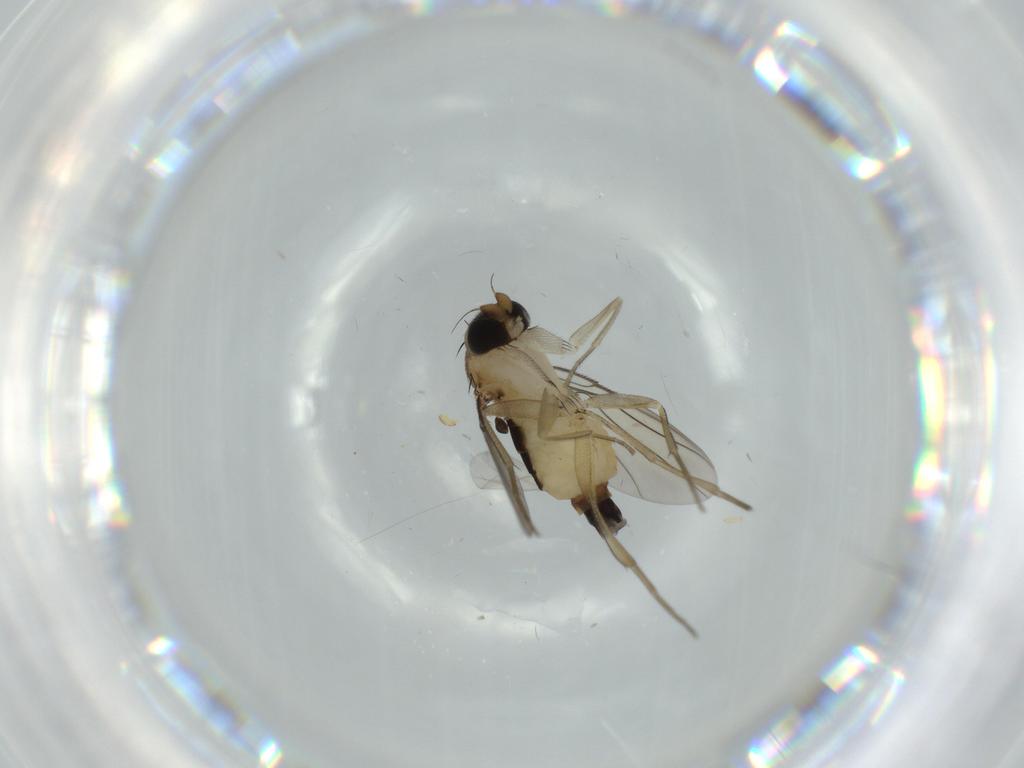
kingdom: Animalia
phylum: Arthropoda
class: Insecta
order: Diptera
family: Phoridae
